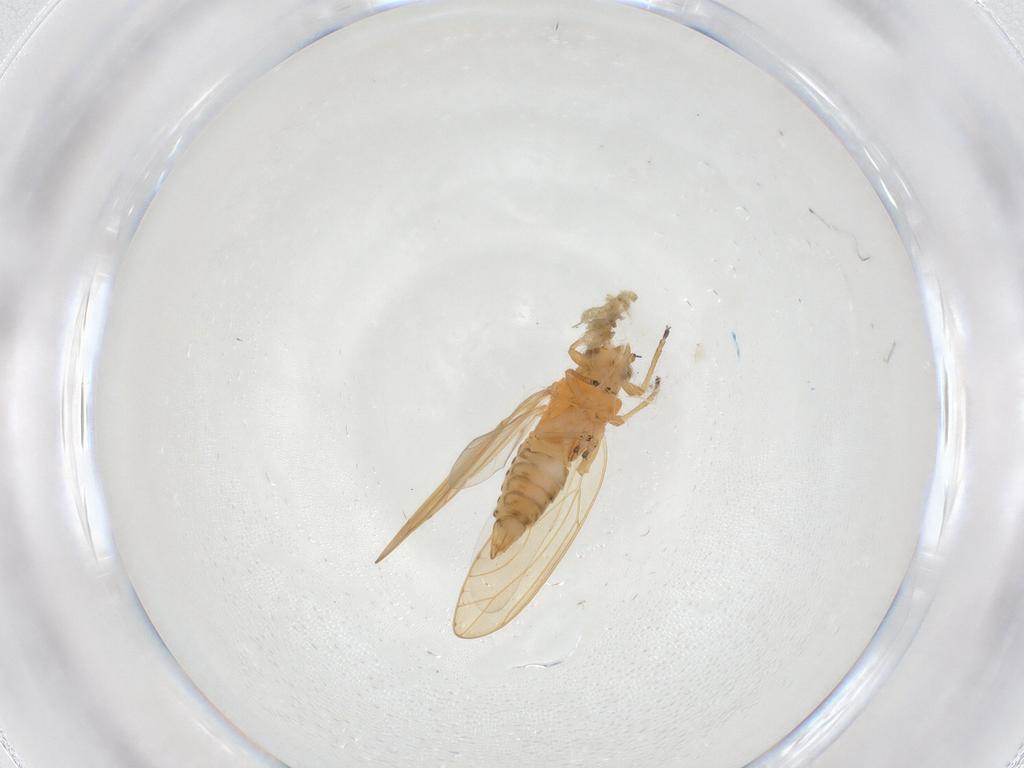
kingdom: Animalia
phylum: Arthropoda
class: Insecta
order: Hemiptera
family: Triozidae
